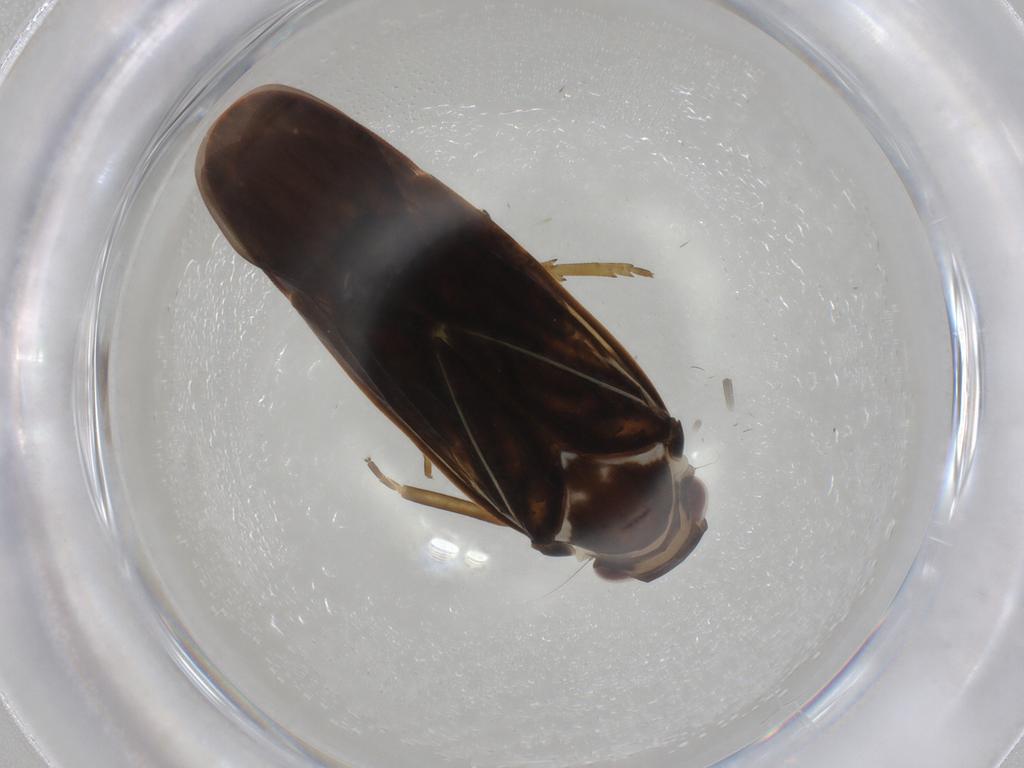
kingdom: Animalia
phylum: Arthropoda
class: Insecta
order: Hemiptera
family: Achilidae
